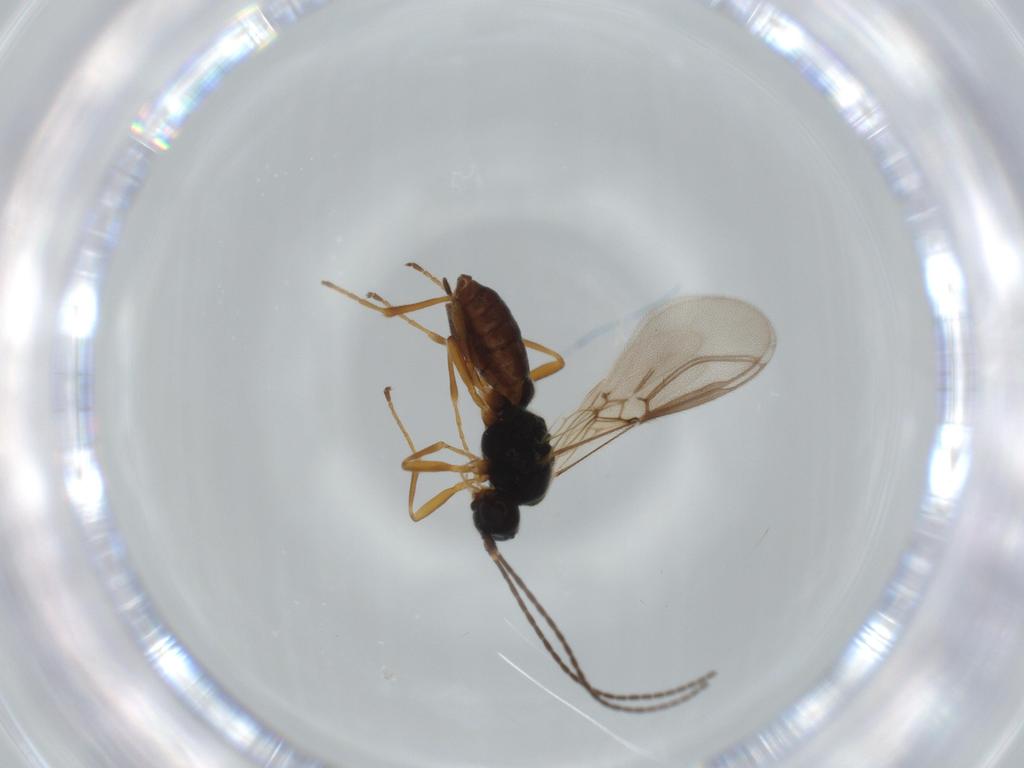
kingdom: Animalia
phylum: Arthropoda
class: Insecta
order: Hymenoptera
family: Braconidae
